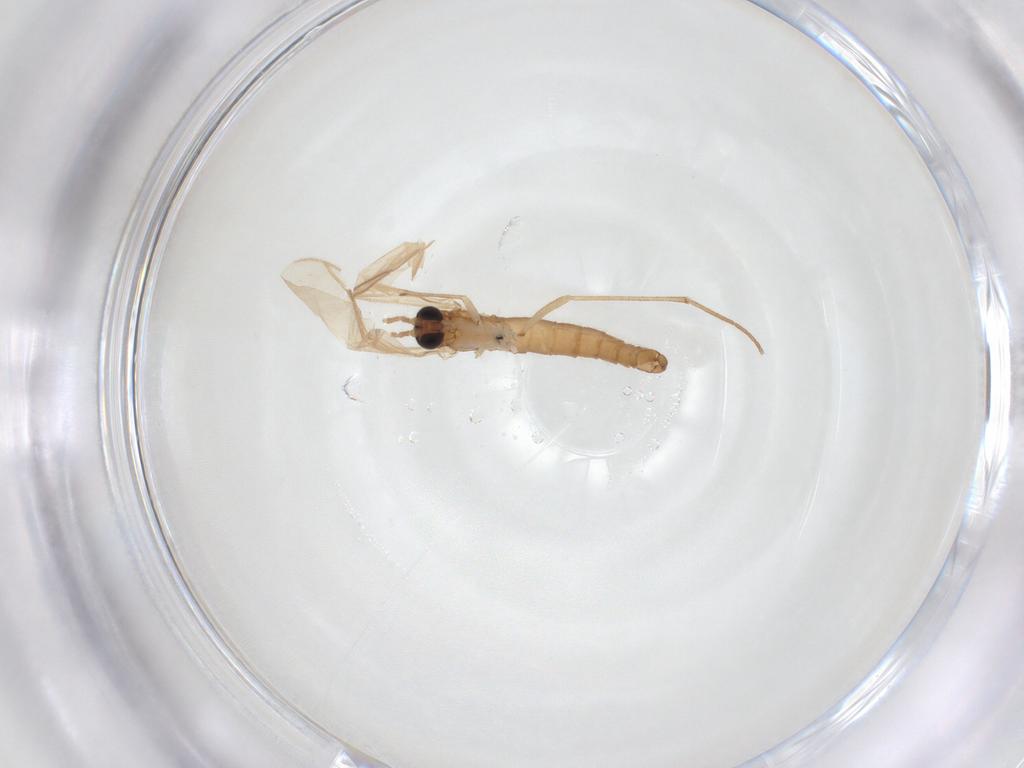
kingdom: Animalia
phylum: Arthropoda
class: Insecta
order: Diptera
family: Sciaridae
